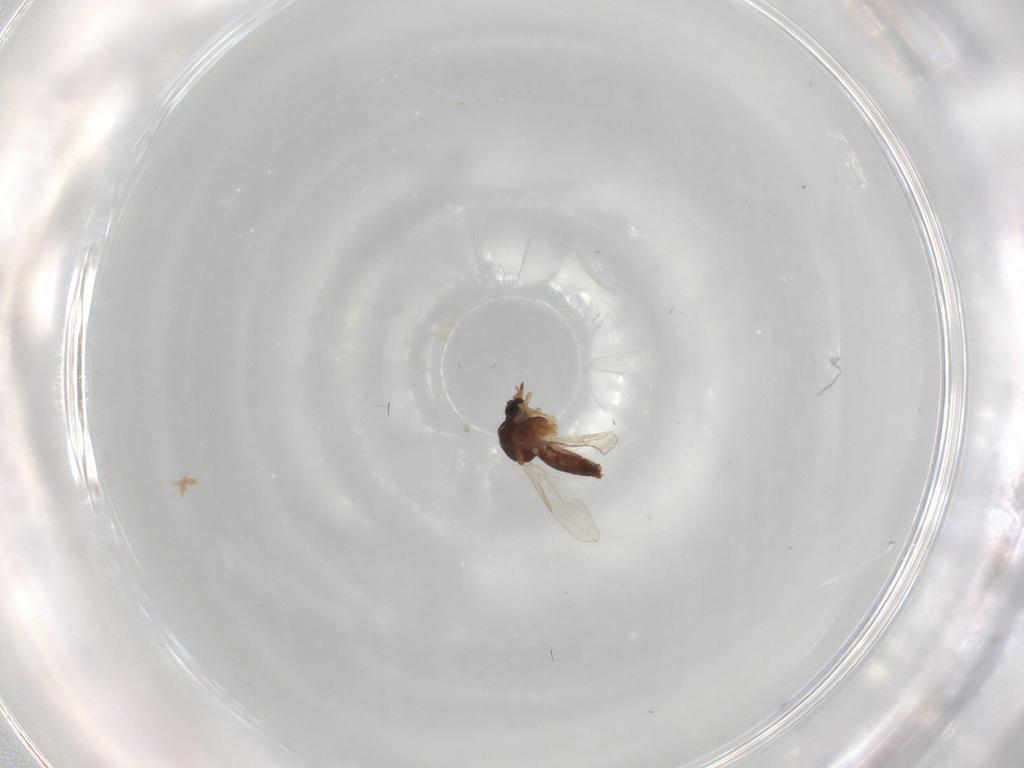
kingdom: Animalia
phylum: Arthropoda
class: Insecta
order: Diptera
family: Ceratopogonidae
